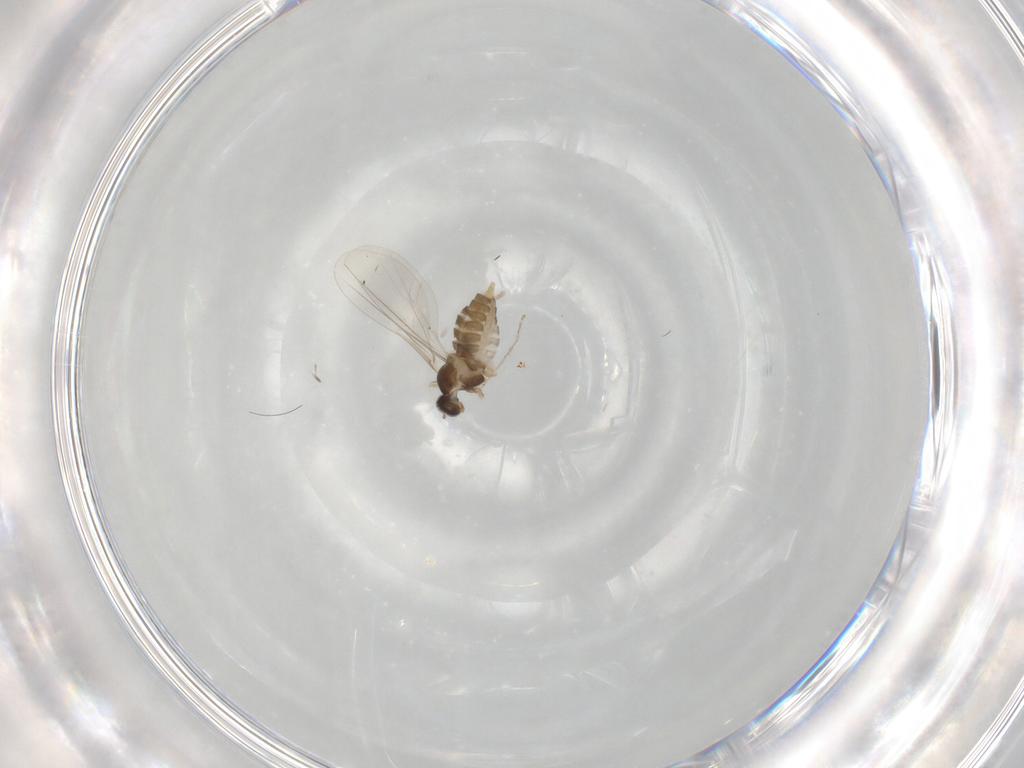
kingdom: Animalia
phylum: Arthropoda
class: Insecta
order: Diptera
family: Cecidomyiidae
